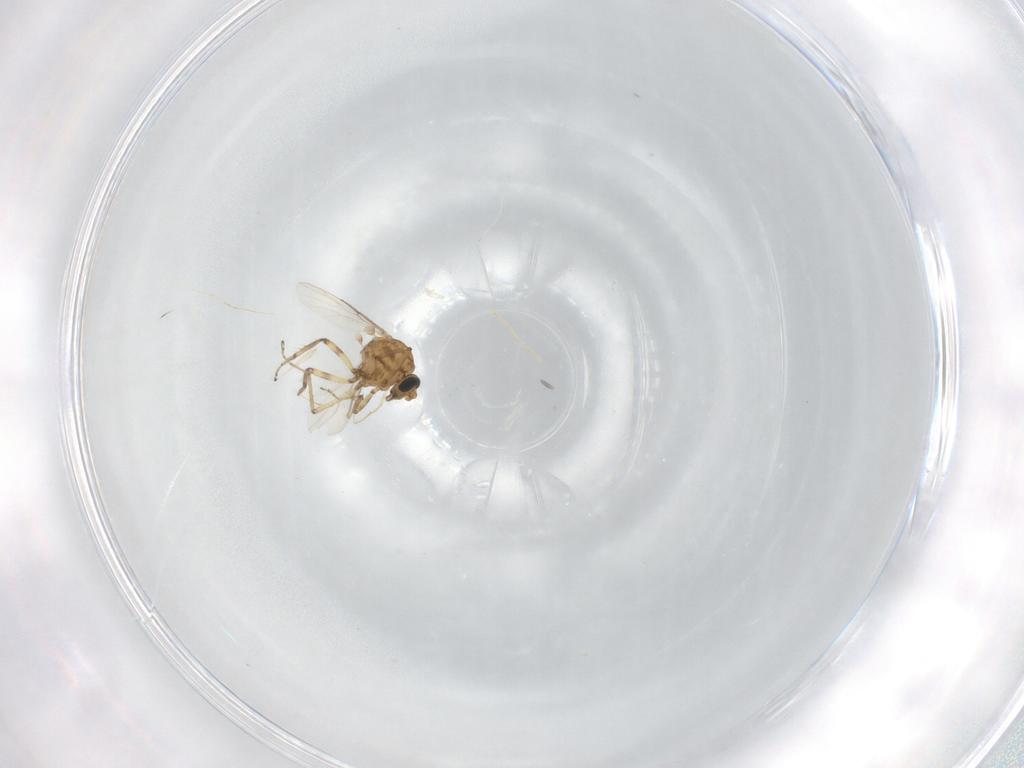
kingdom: Animalia
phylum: Arthropoda
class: Insecta
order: Diptera
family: Ceratopogonidae
